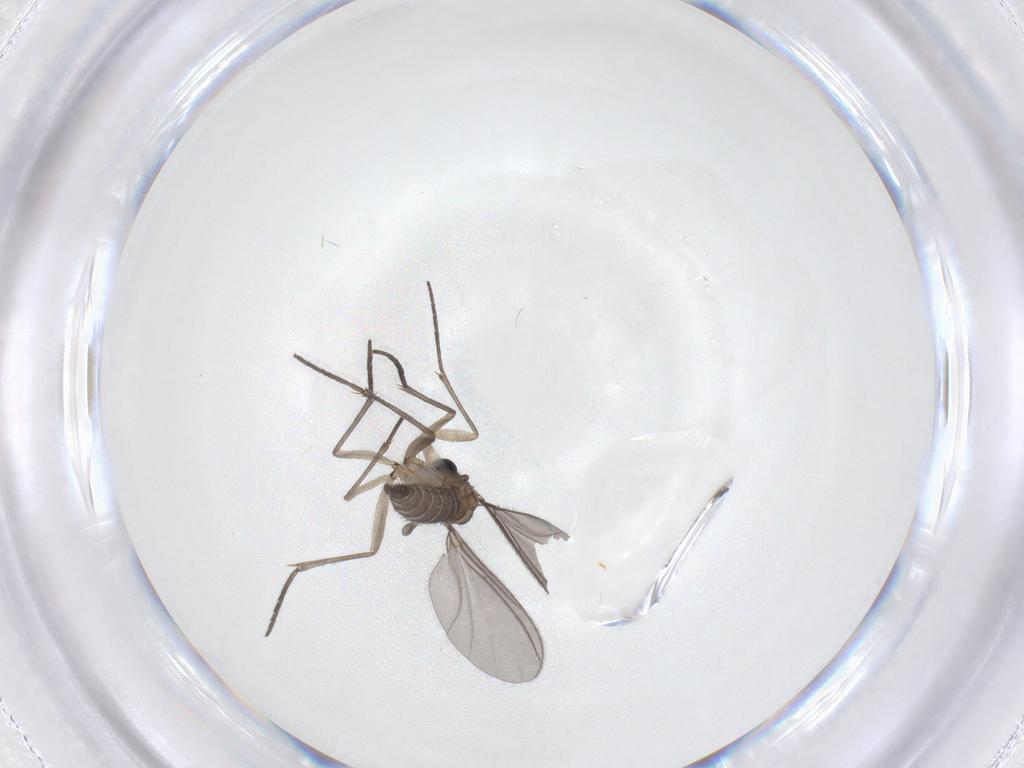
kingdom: Animalia
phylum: Arthropoda
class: Insecta
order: Diptera
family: Sciaridae
